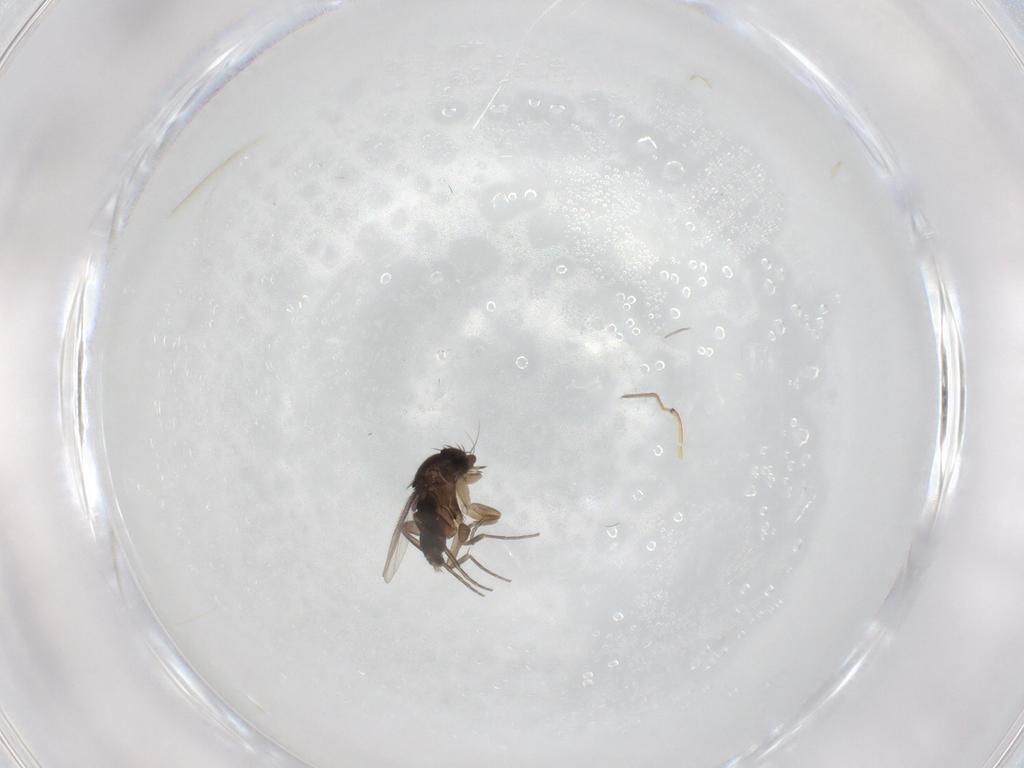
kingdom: Animalia
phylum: Arthropoda
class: Insecta
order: Diptera
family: Phoridae
